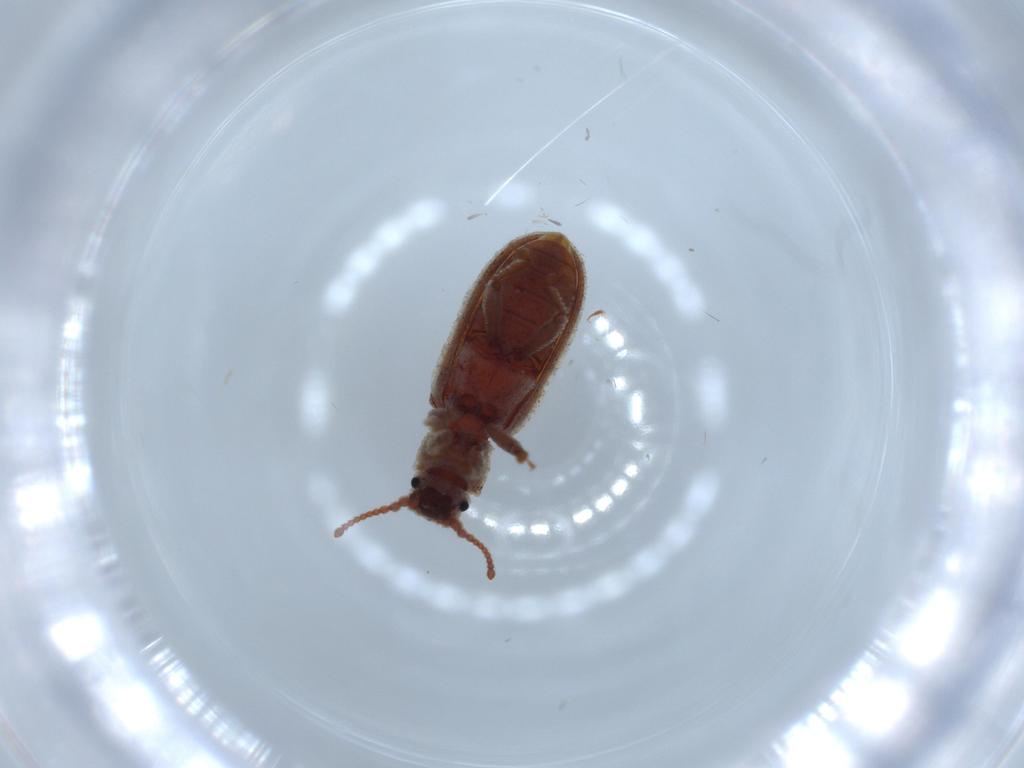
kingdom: Animalia
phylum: Arthropoda
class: Insecta
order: Coleoptera
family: Zopheridae
